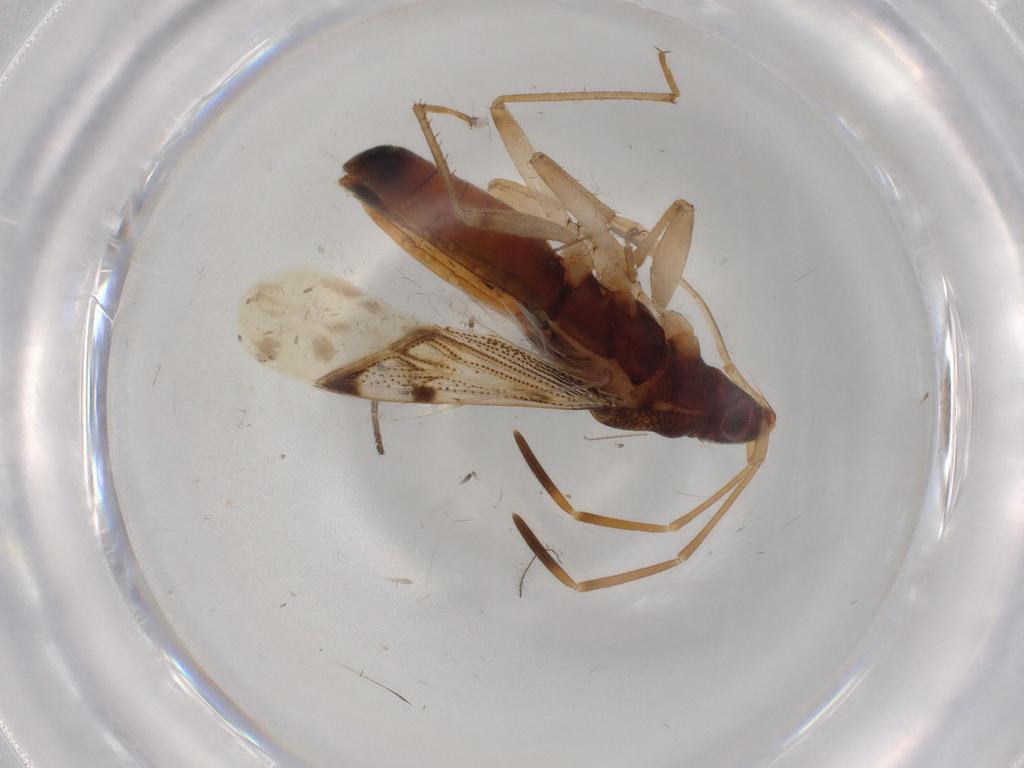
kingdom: Animalia
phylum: Arthropoda
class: Insecta
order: Hemiptera
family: Rhyparochromidae
